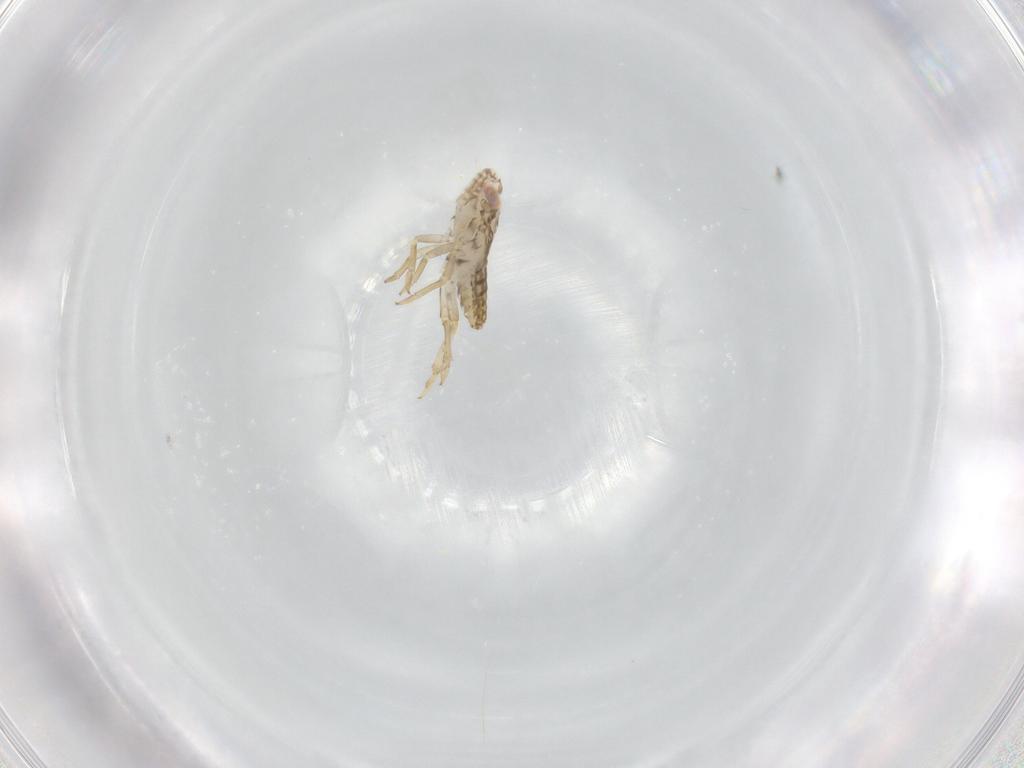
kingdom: Animalia
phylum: Arthropoda
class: Insecta
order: Hemiptera
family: Delphacidae
